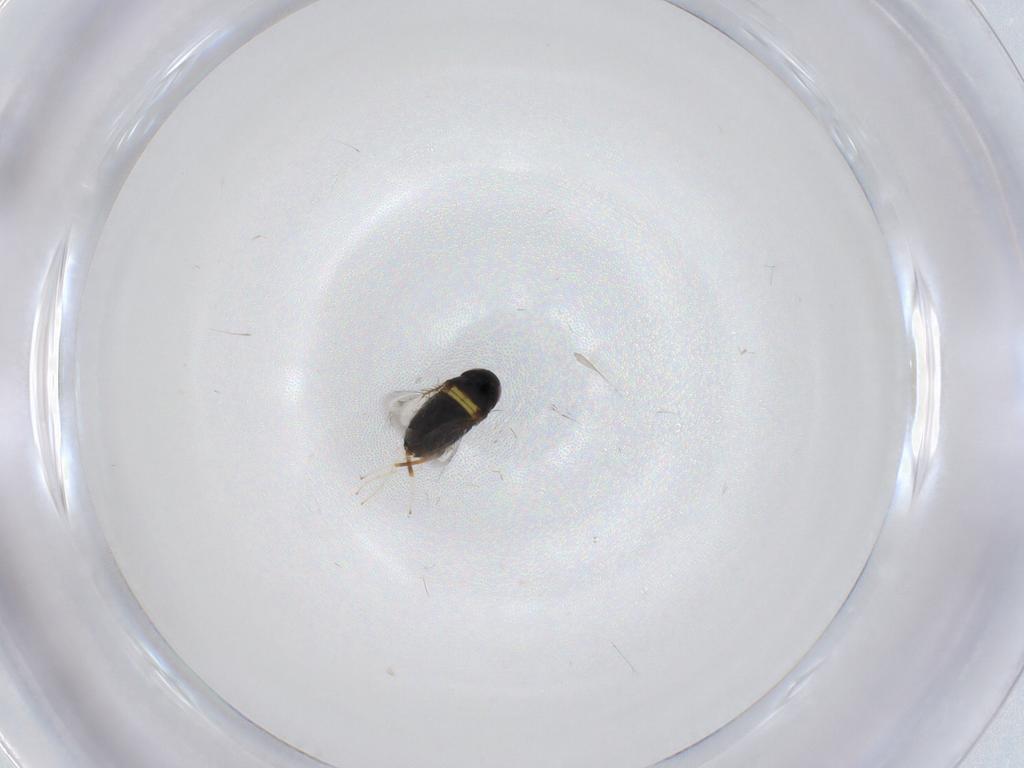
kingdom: Animalia
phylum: Arthropoda
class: Insecta
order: Hymenoptera
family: Signiphoridae
